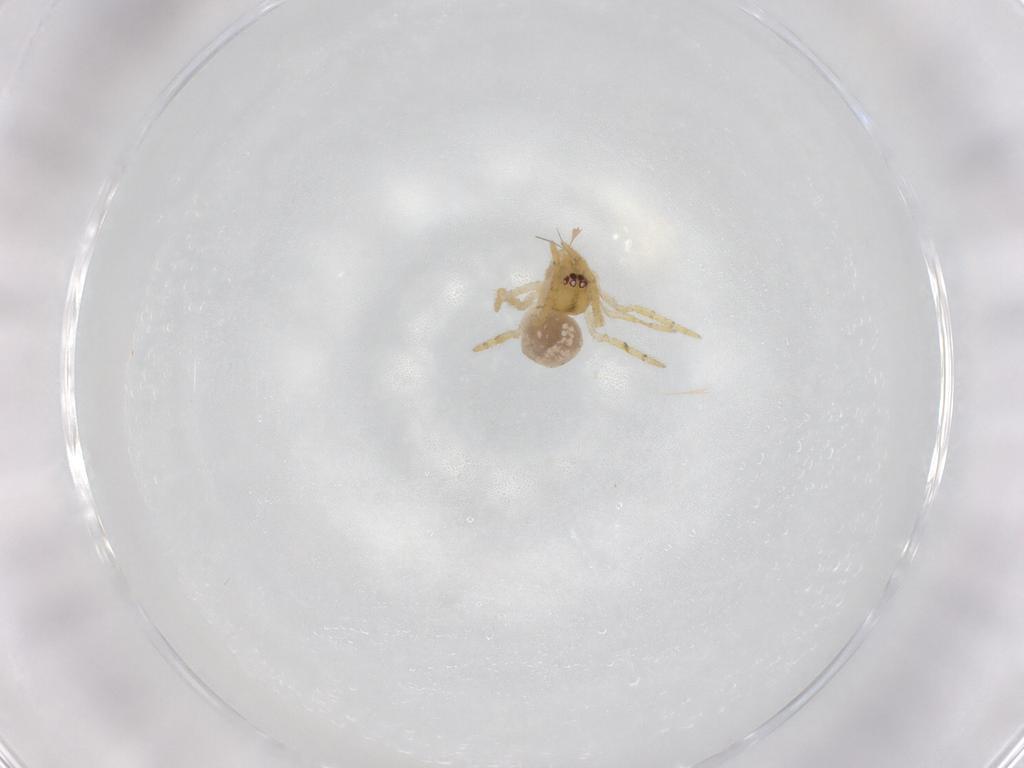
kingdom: Animalia
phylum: Arthropoda
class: Arachnida
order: Araneae
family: Theridiidae
